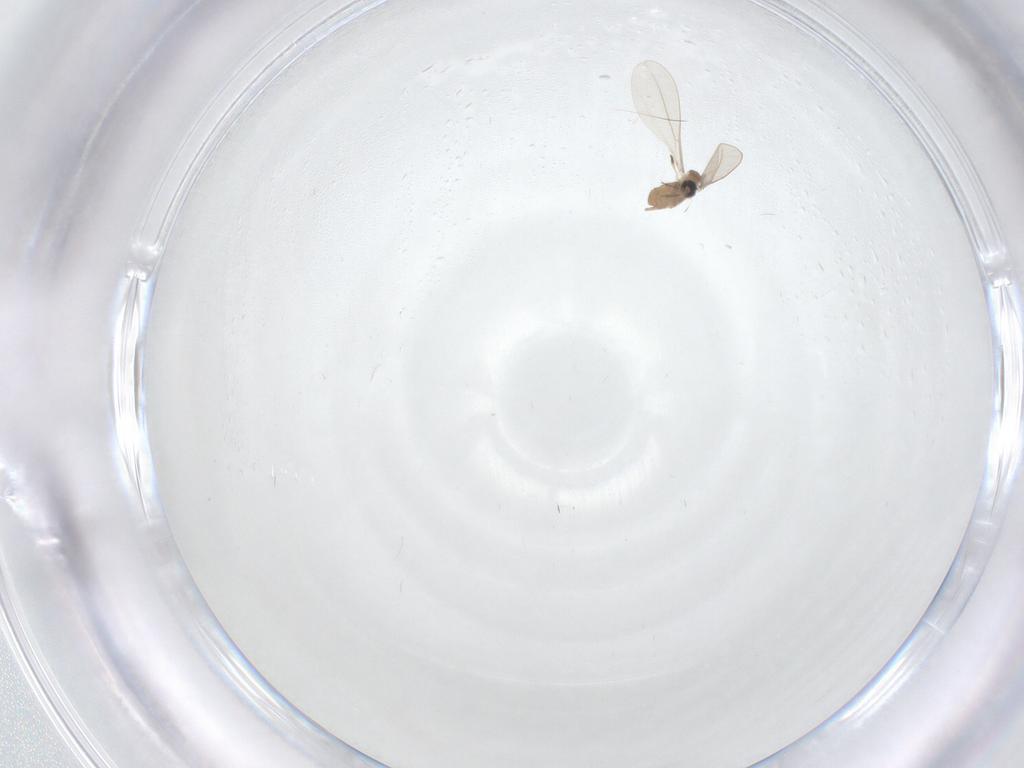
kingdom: Animalia
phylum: Arthropoda
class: Insecta
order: Diptera
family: Cecidomyiidae
